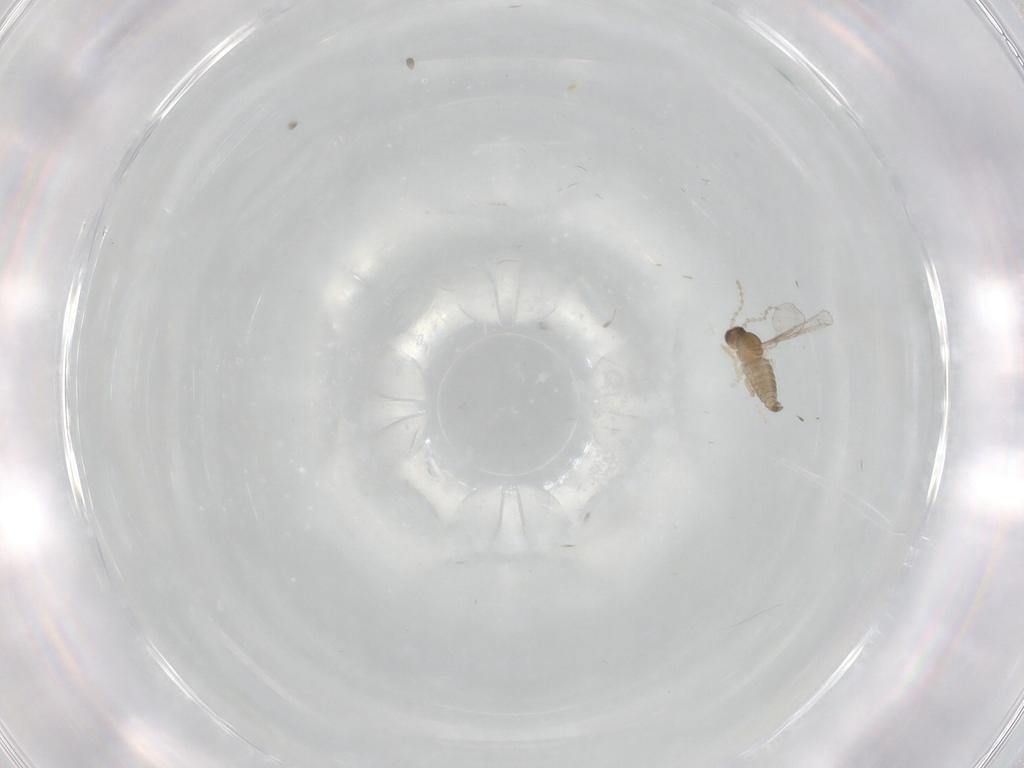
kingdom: Animalia
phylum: Arthropoda
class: Insecta
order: Diptera
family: Cecidomyiidae
